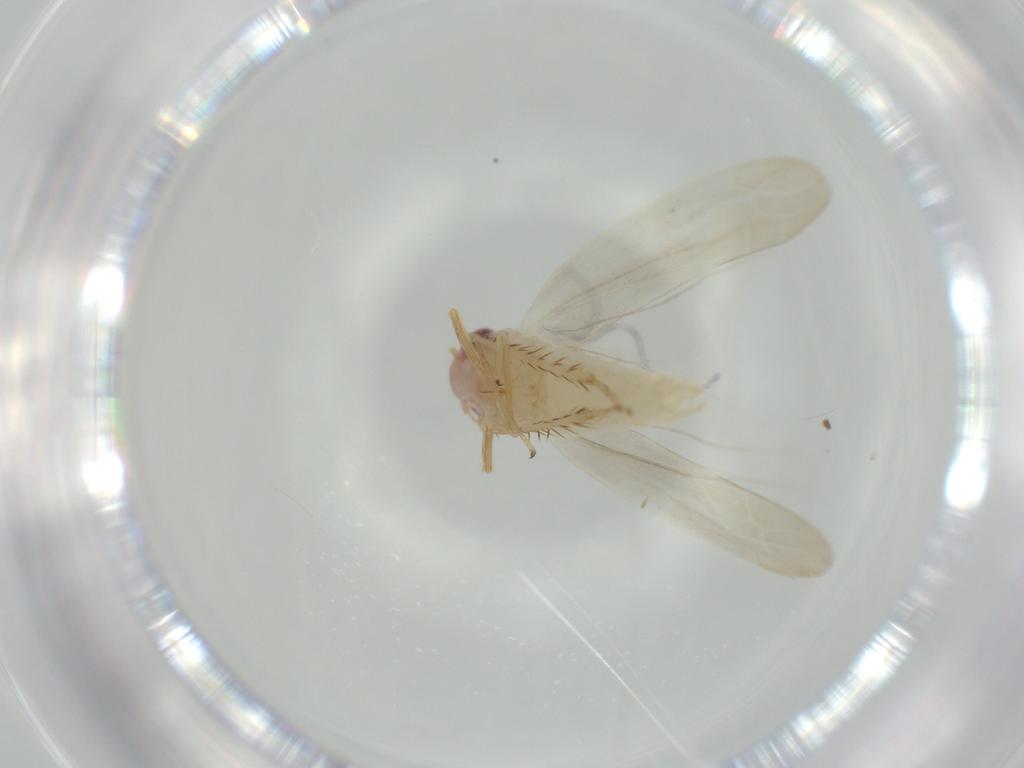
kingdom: Animalia
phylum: Arthropoda
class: Insecta
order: Hemiptera
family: Cicadellidae
